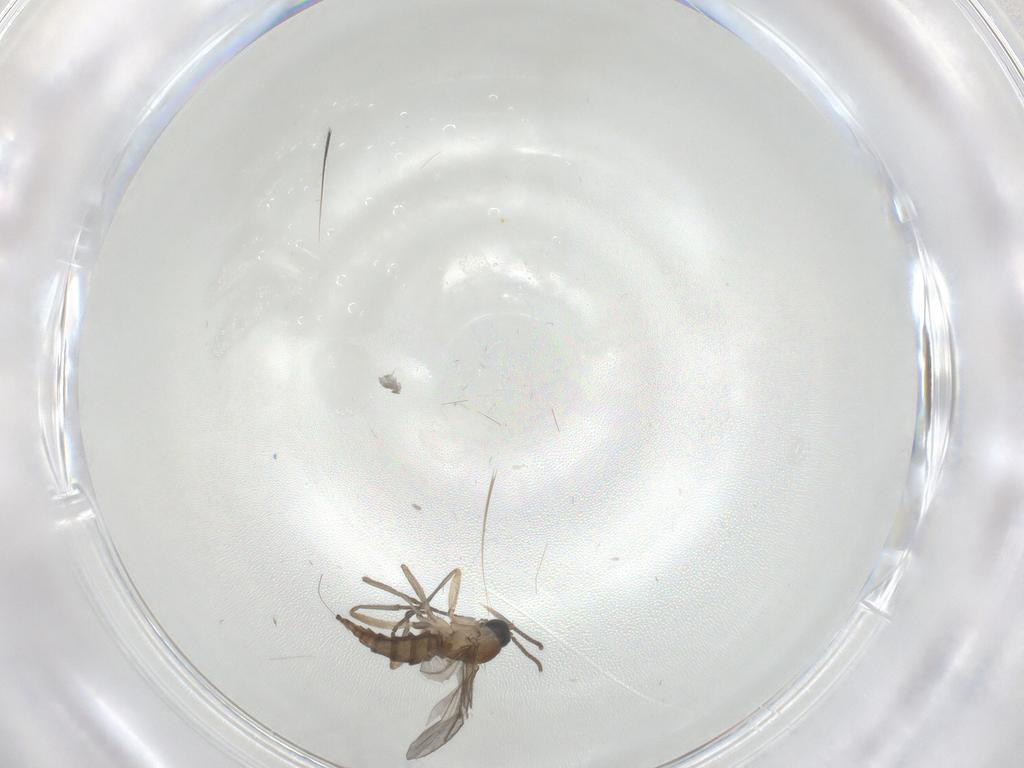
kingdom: Animalia
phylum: Arthropoda
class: Insecta
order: Diptera
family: Sciaridae
